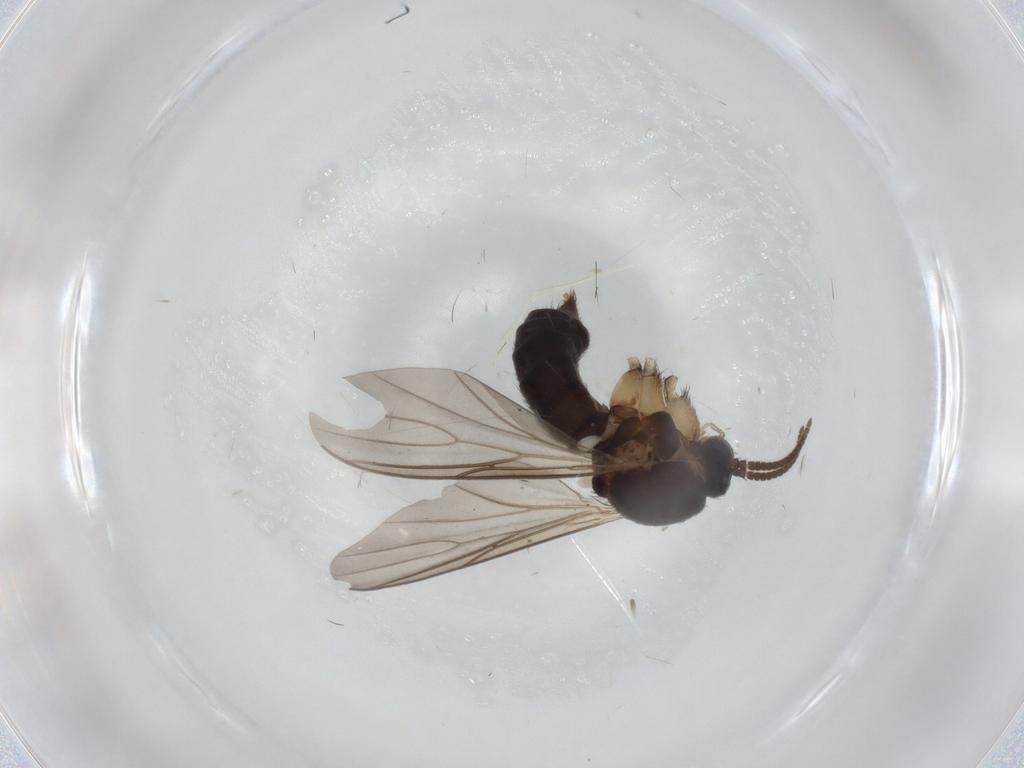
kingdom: Animalia
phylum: Arthropoda
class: Insecta
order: Diptera
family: Mycetophilidae
